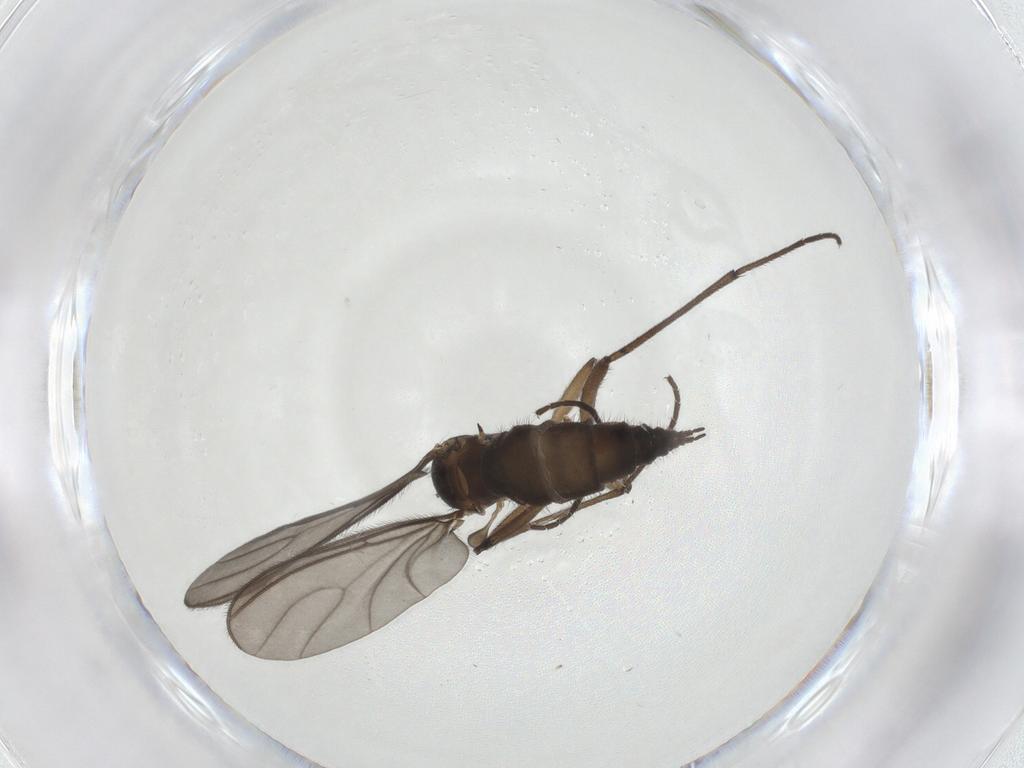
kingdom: Animalia
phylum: Arthropoda
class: Insecta
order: Diptera
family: Sciaridae
